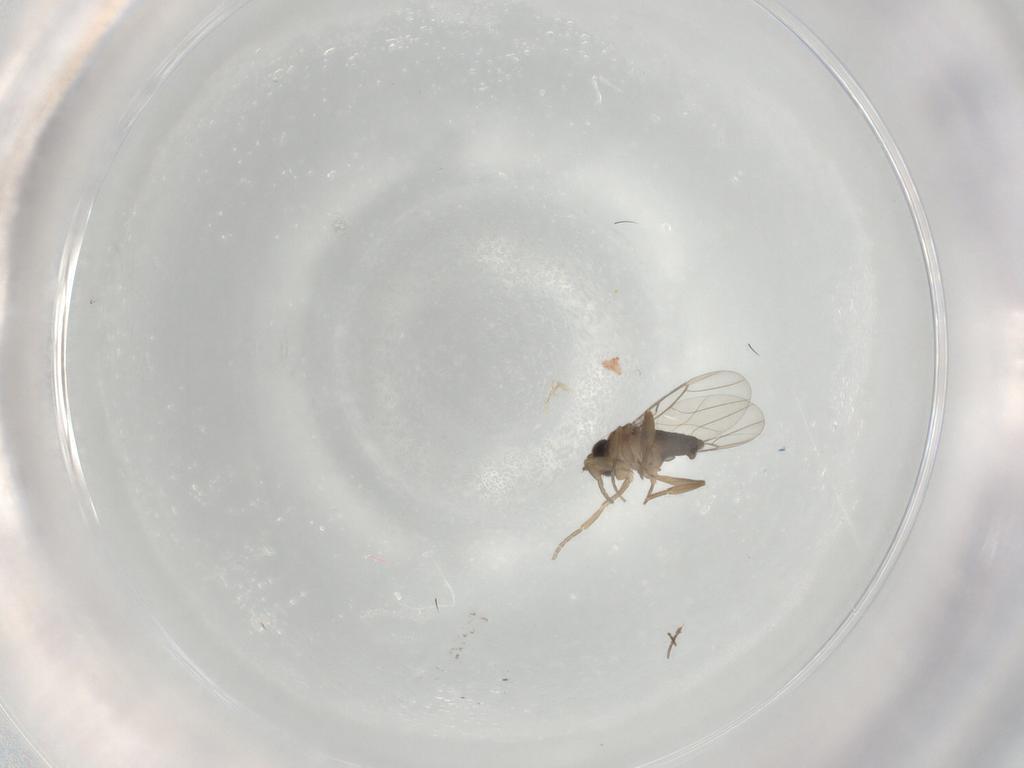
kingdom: Animalia
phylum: Arthropoda
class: Insecta
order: Diptera
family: Phoridae
